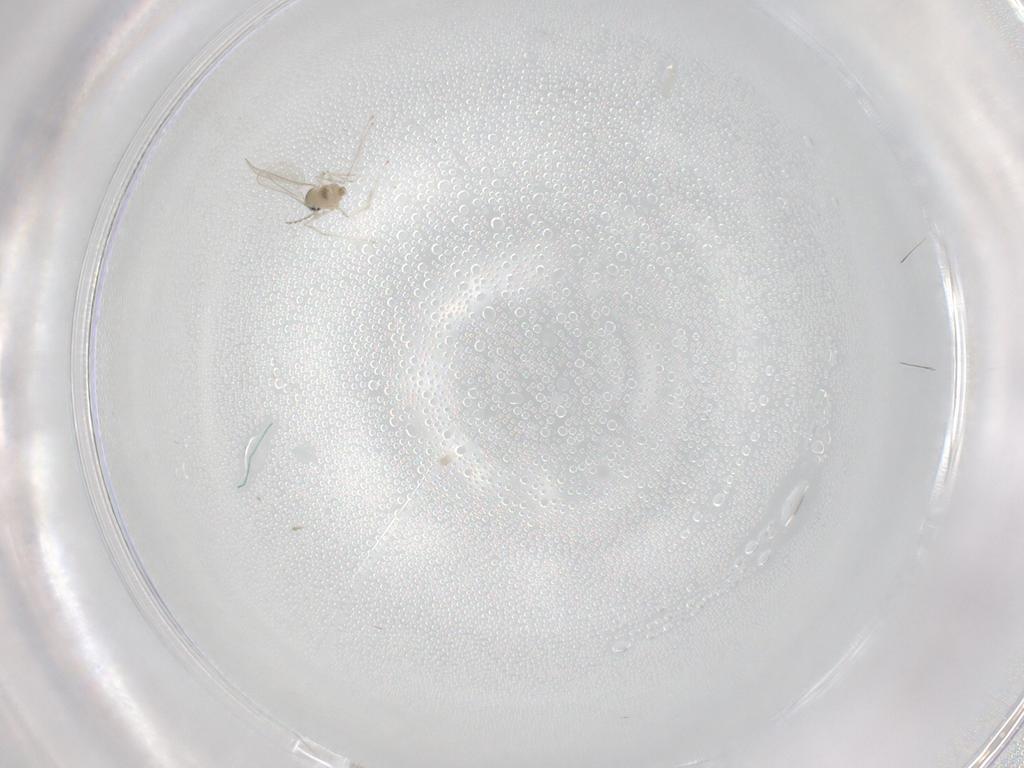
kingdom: Animalia
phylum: Arthropoda
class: Insecta
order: Diptera
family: Cecidomyiidae
